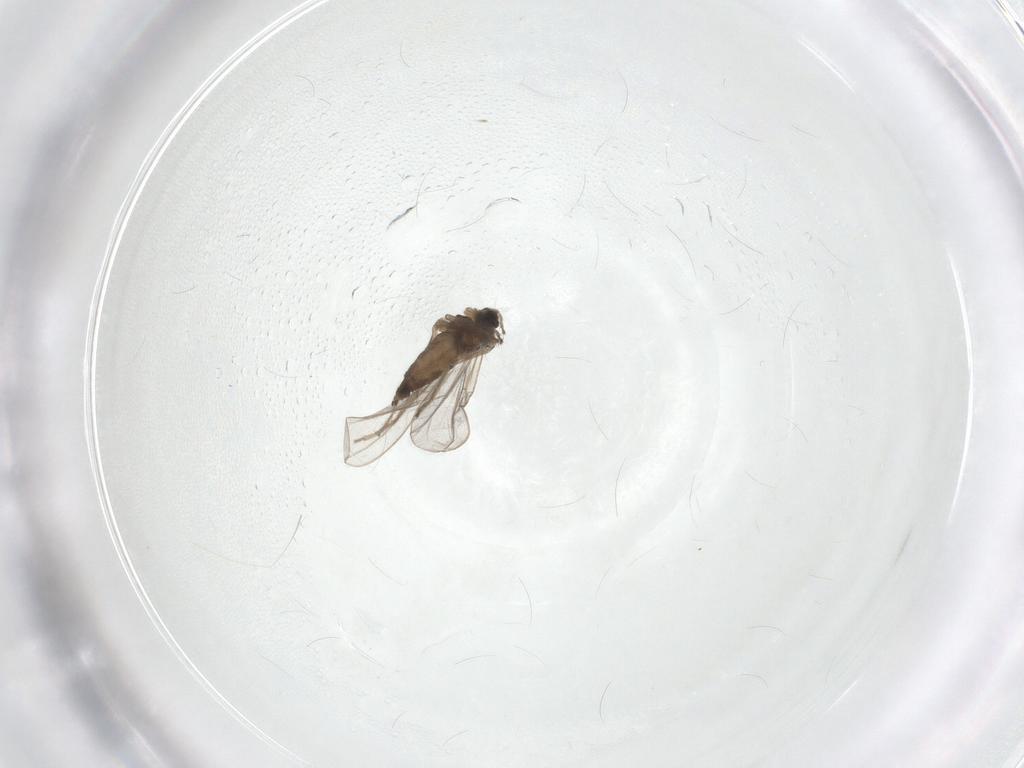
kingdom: Animalia
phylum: Arthropoda
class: Insecta
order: Diptera
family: Cecidomyiidae
